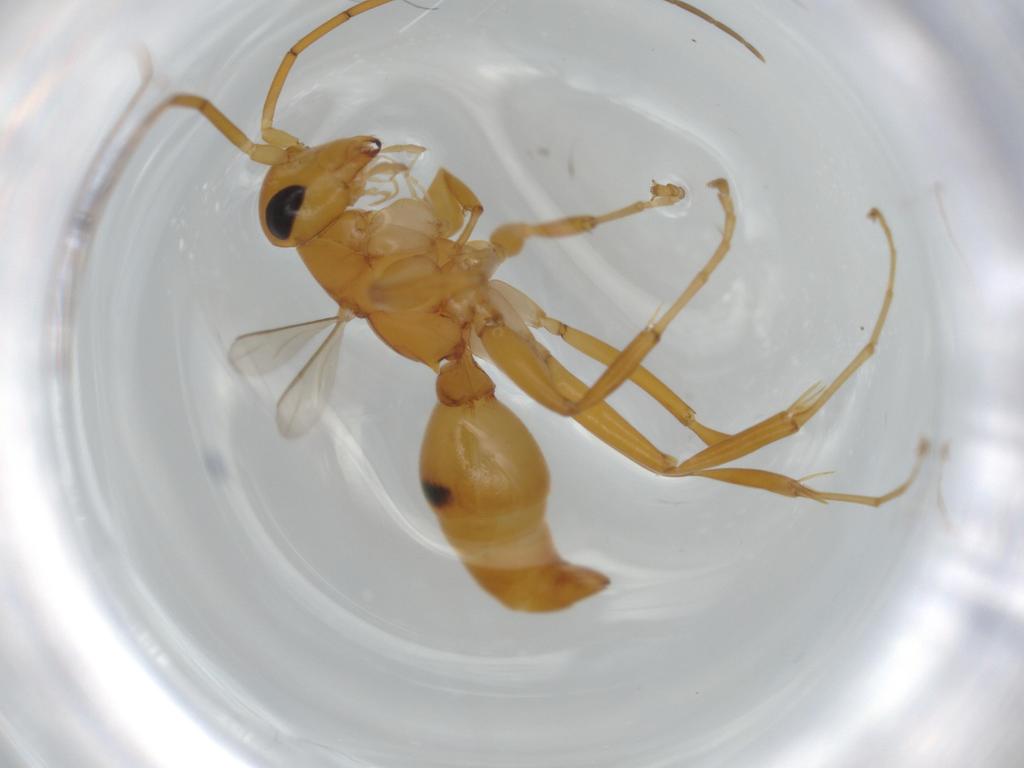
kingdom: Animalia
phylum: Arthropoda
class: Insecta
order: Hymenoptera
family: Rhopalosomatidae
